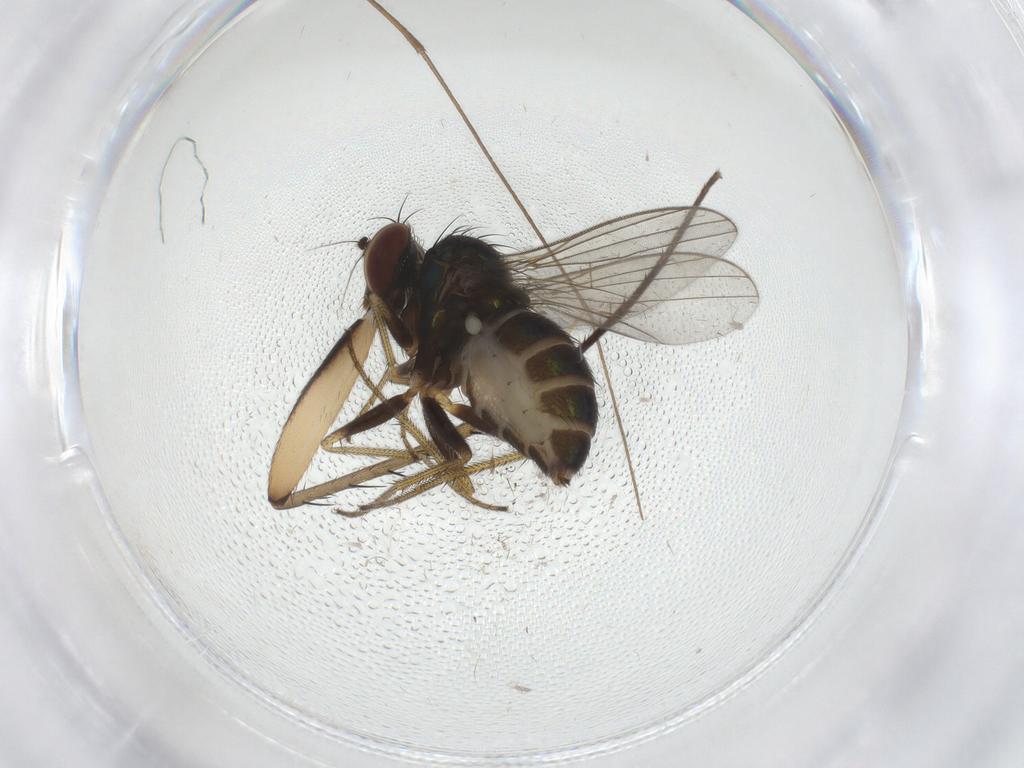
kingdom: Animalia
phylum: Arthropoda
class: Insecta
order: Diptera
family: Mycetophilidae
